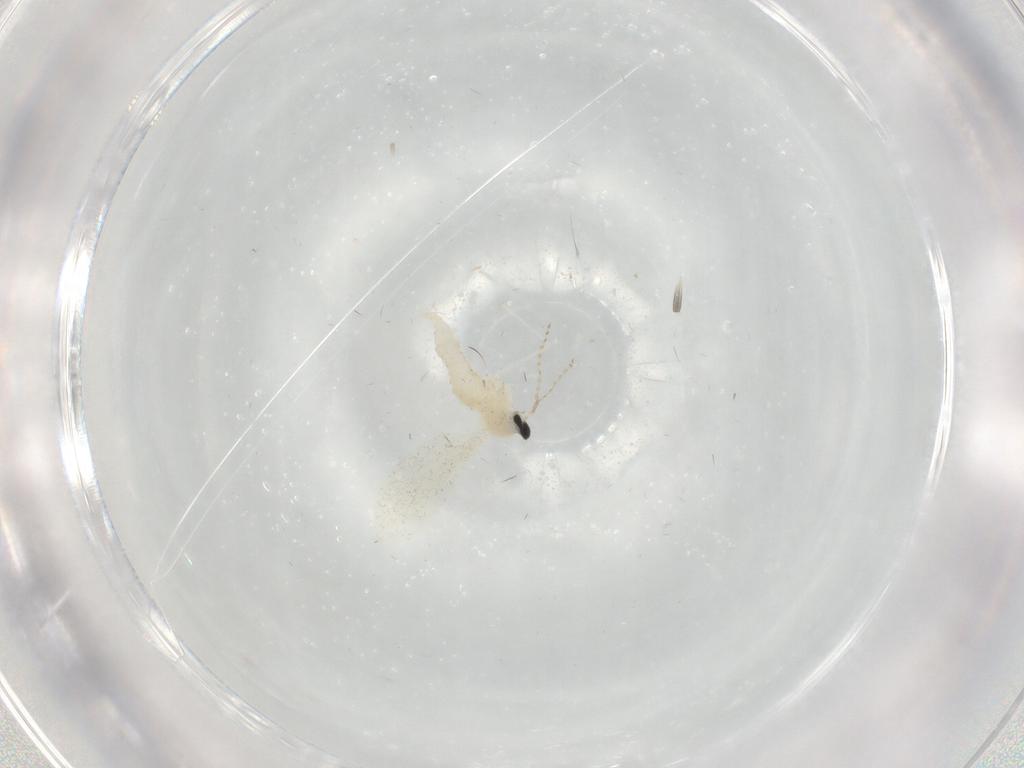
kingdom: Animalia
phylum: Arthropoda
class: Insecta
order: Diptera
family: Cecidomyiidae
